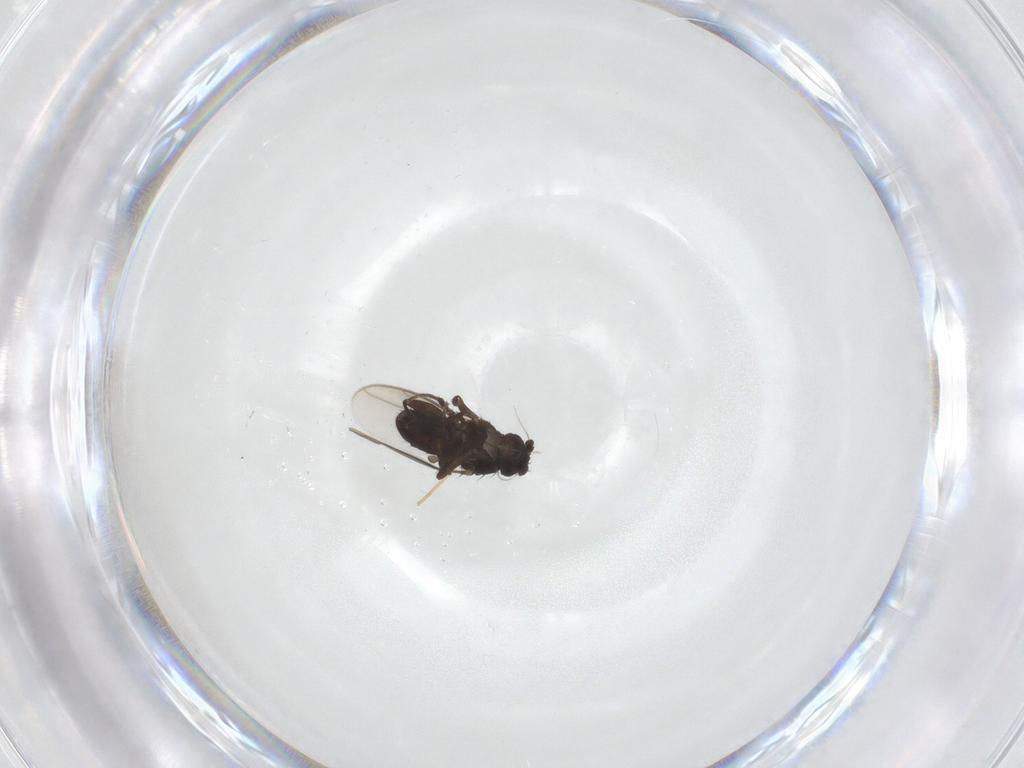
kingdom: Animalia
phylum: Arthropoda
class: Insecta
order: Diptera
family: Sphaeroceridae
